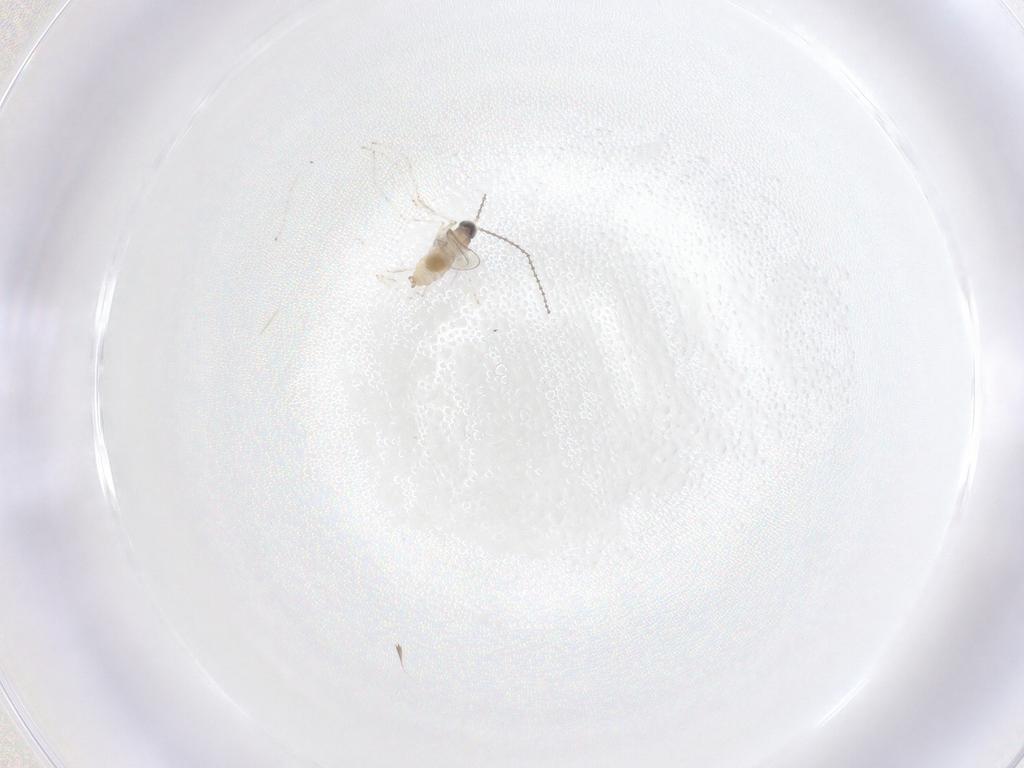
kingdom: Animalia
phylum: Arthropoda
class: Insecta
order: Diptera
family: Cecidomyiidae
